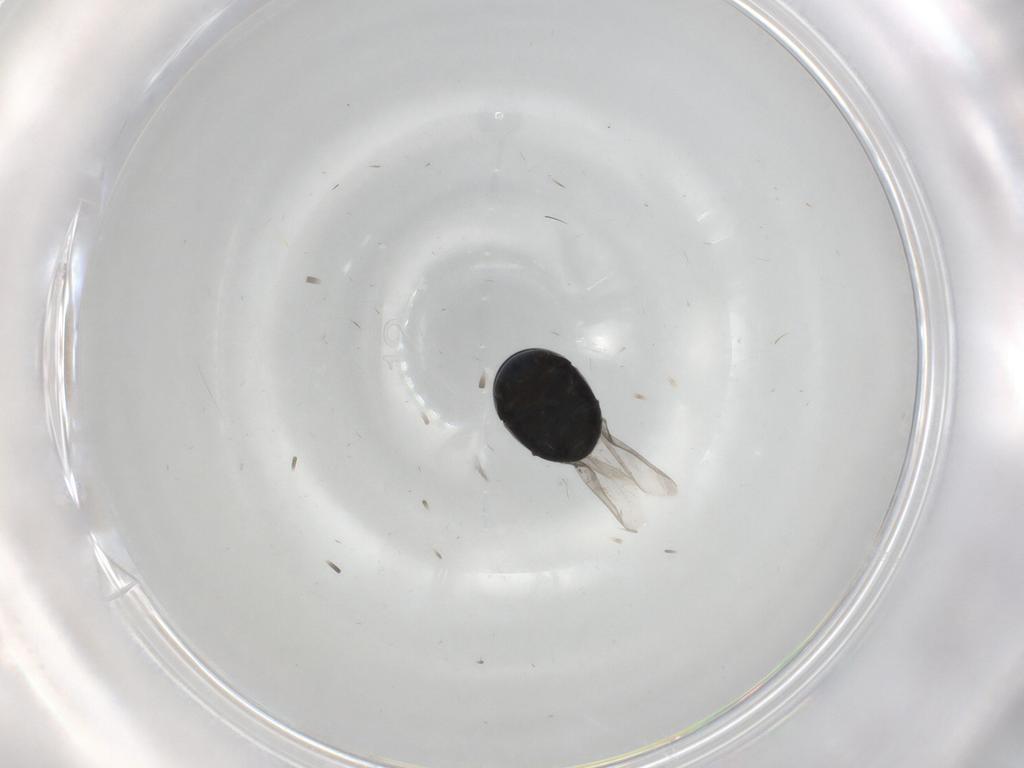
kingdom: Animalia
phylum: Arthropoda
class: Insecta
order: Coleoptera
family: Cybocephalidae
